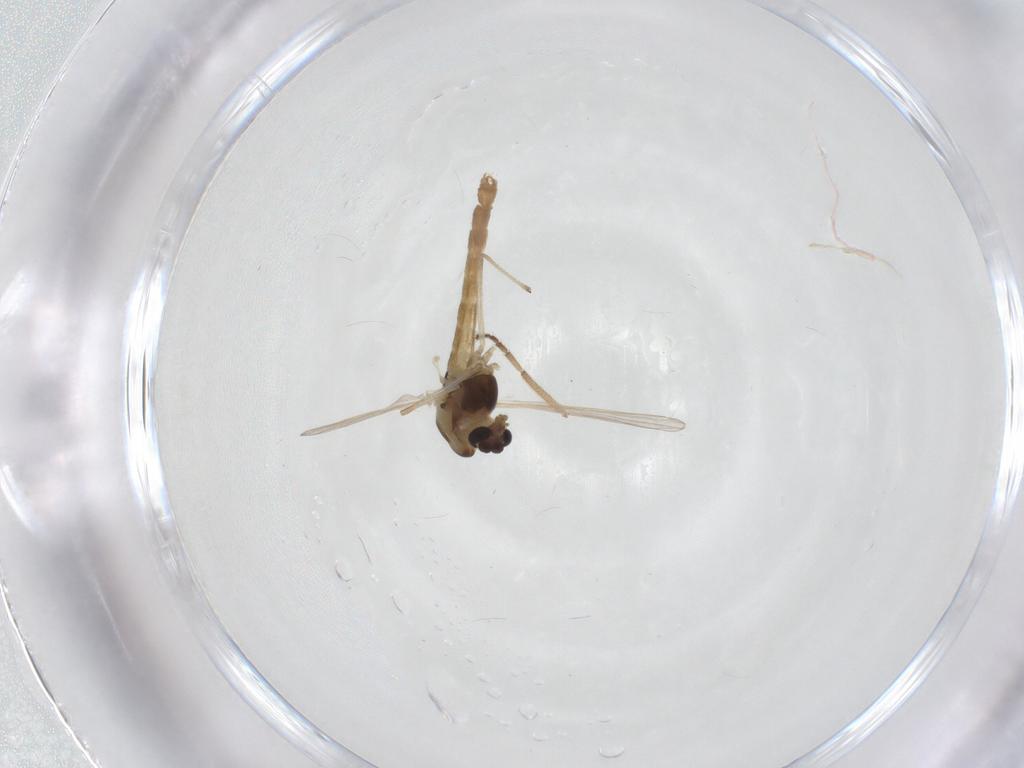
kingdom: Animalia
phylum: Arthropoda
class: Insecta
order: Diptera
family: Chironomidae
